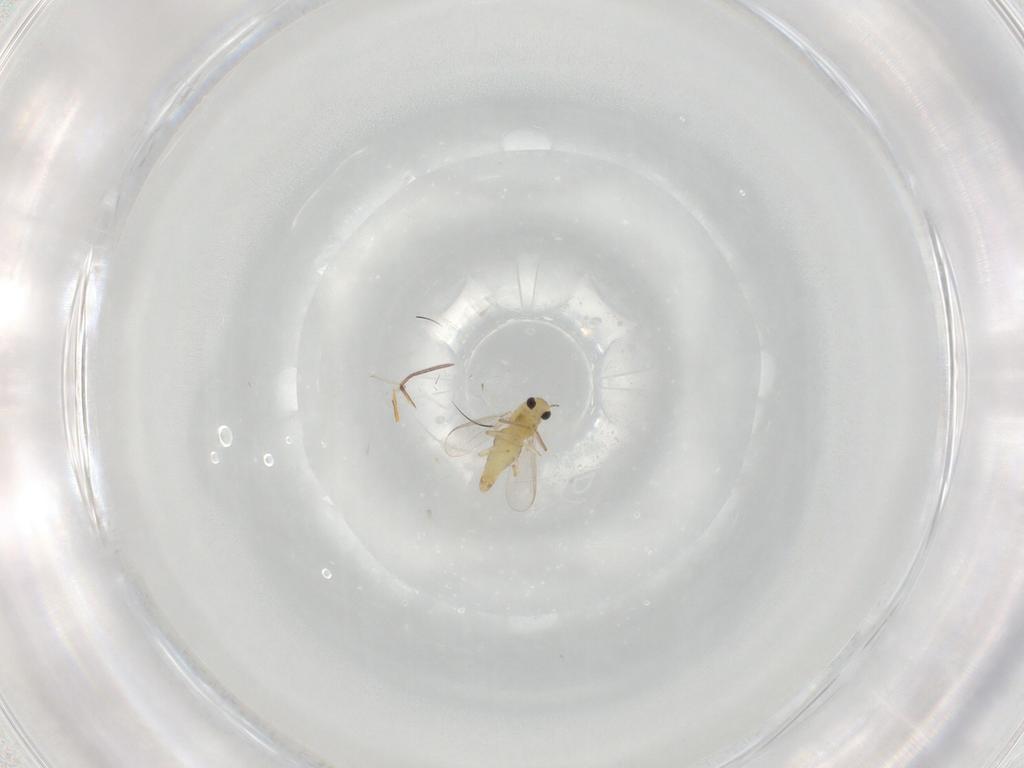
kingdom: Animalia
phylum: Arthropoda
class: Insecta
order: Diptera
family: Chironomidae
